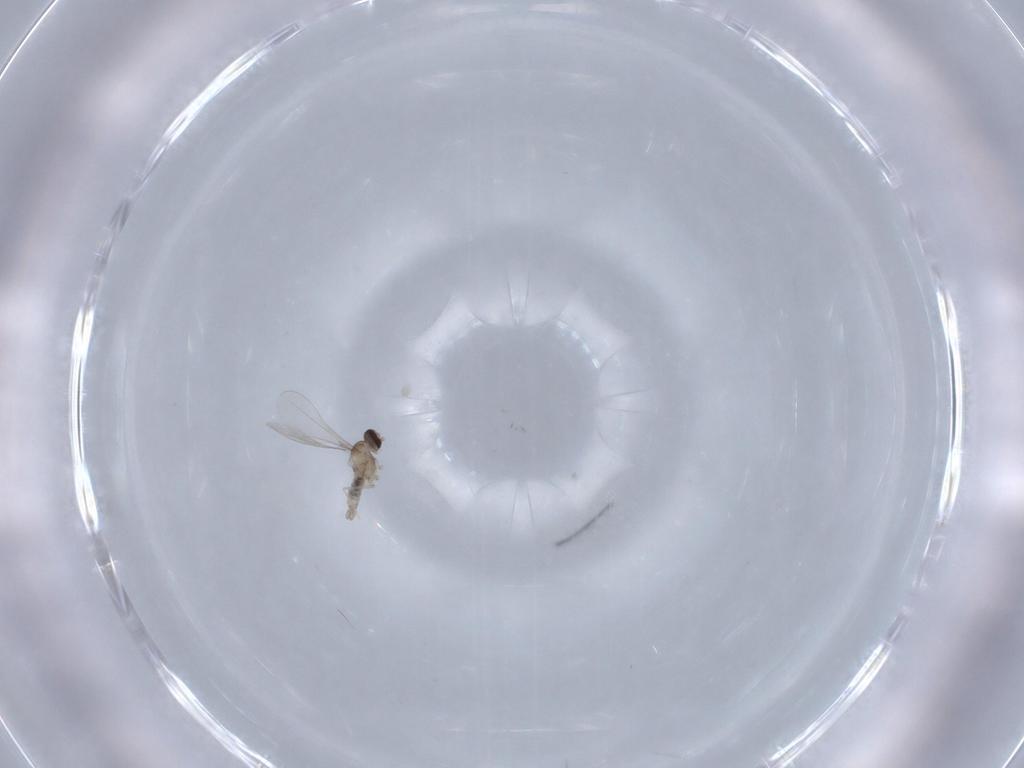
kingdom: Animalia
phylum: Arthropoda
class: Insecta
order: Diptera
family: Cecidomyiidae
